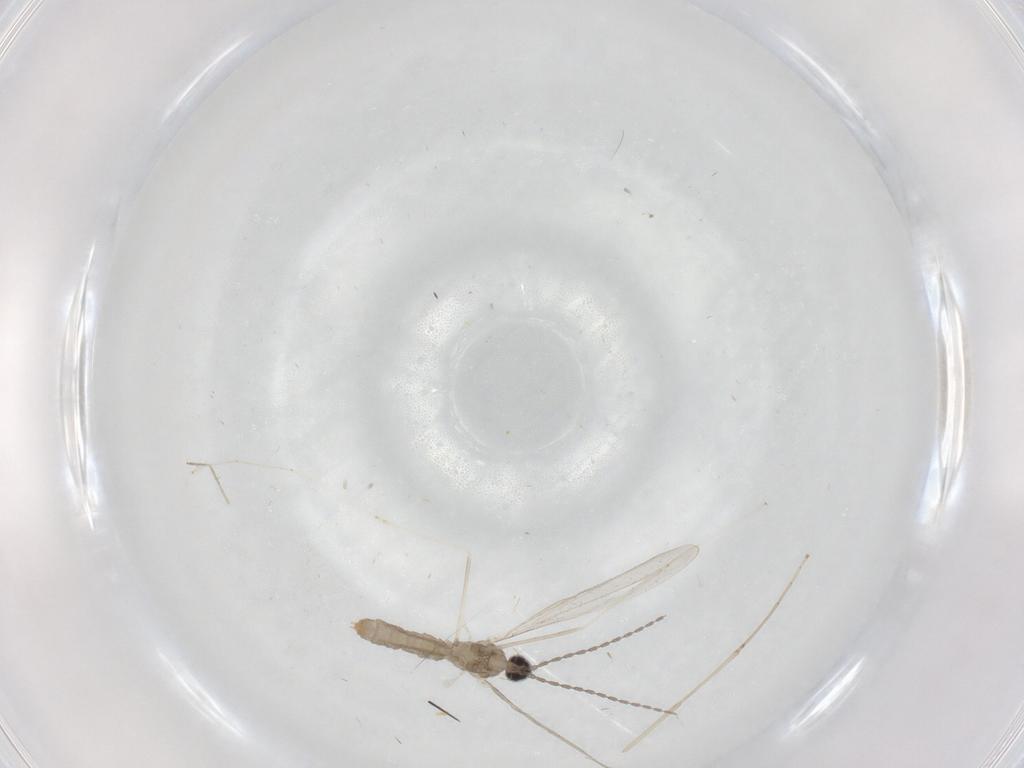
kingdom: Animalia
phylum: Arthropoda
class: Insecta
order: Diptera
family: Cecidomyiidae
